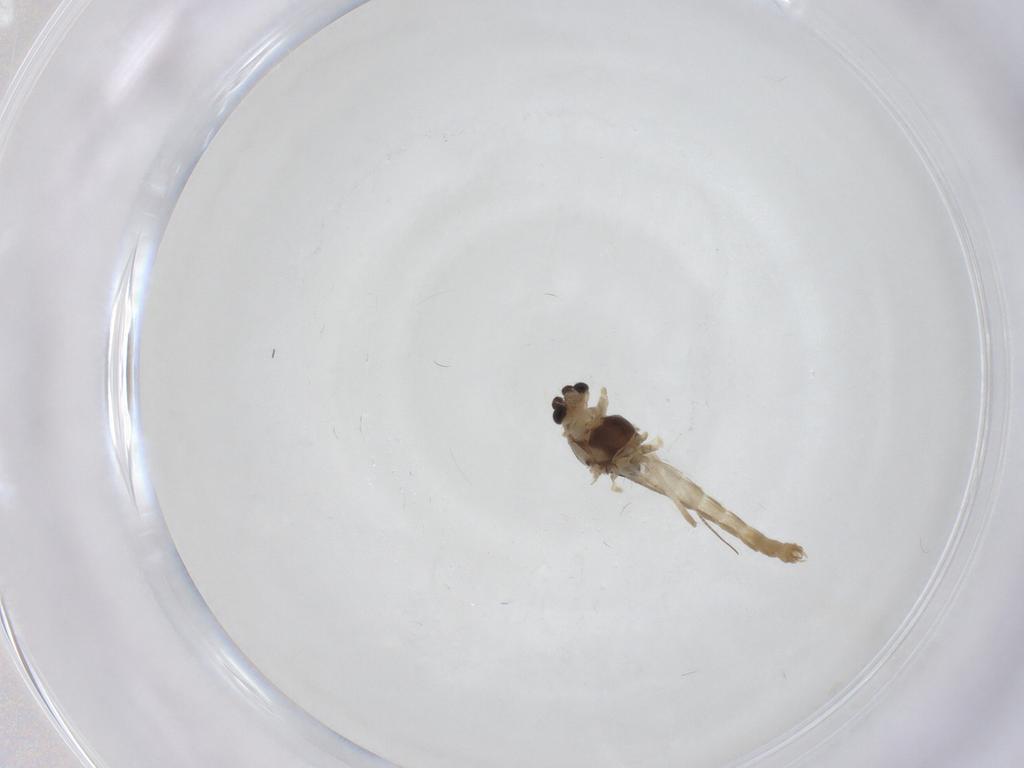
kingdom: Animalia
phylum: Arthropoda
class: Insecta
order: Diptera
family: Chironomidae
